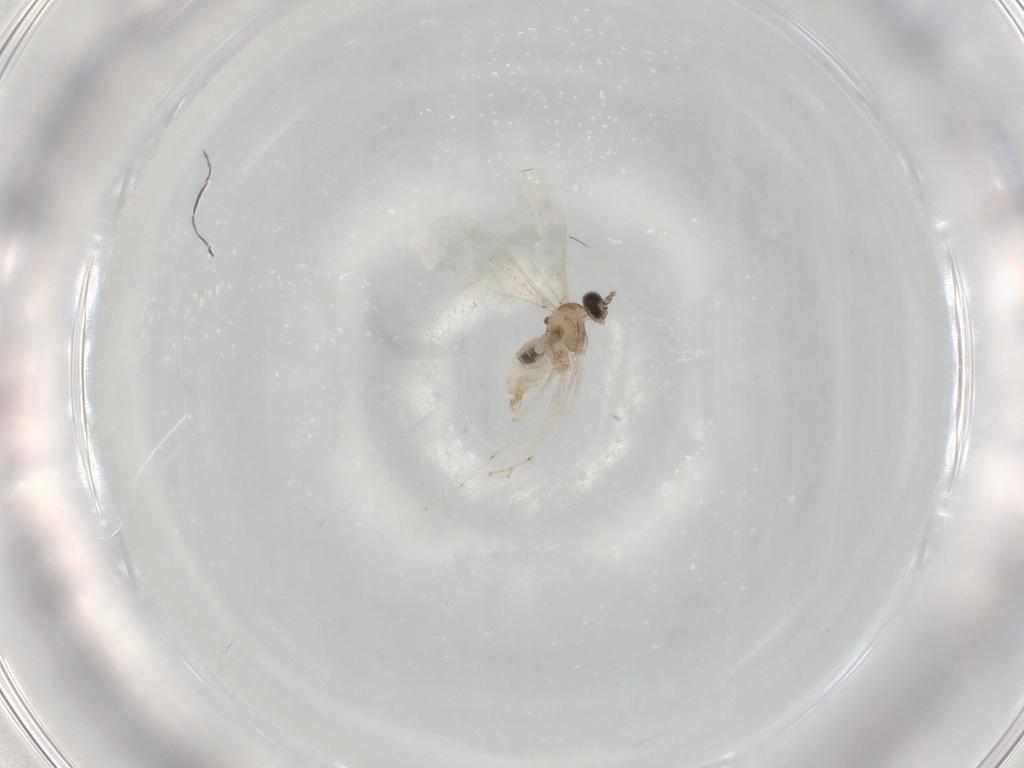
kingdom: Animalia
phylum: Arthropoda
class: Insecta
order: Diptera
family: Cecidomyiidae
